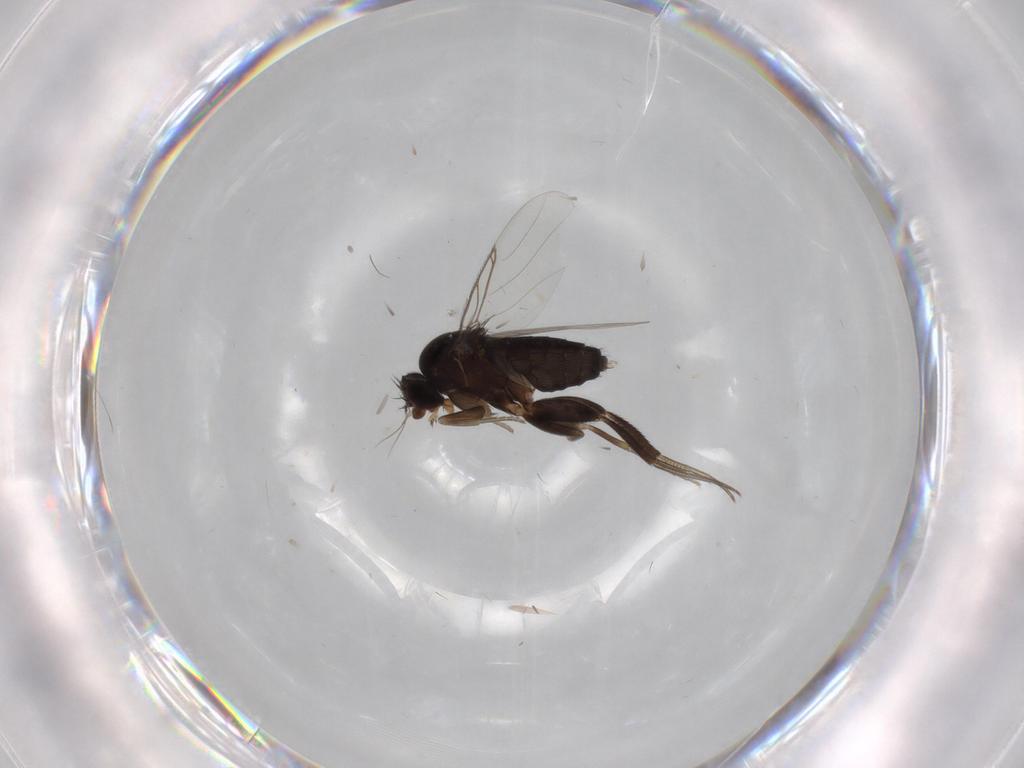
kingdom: Animalia
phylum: Arthropoda
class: Insecta
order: Diptera
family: Phoridae
